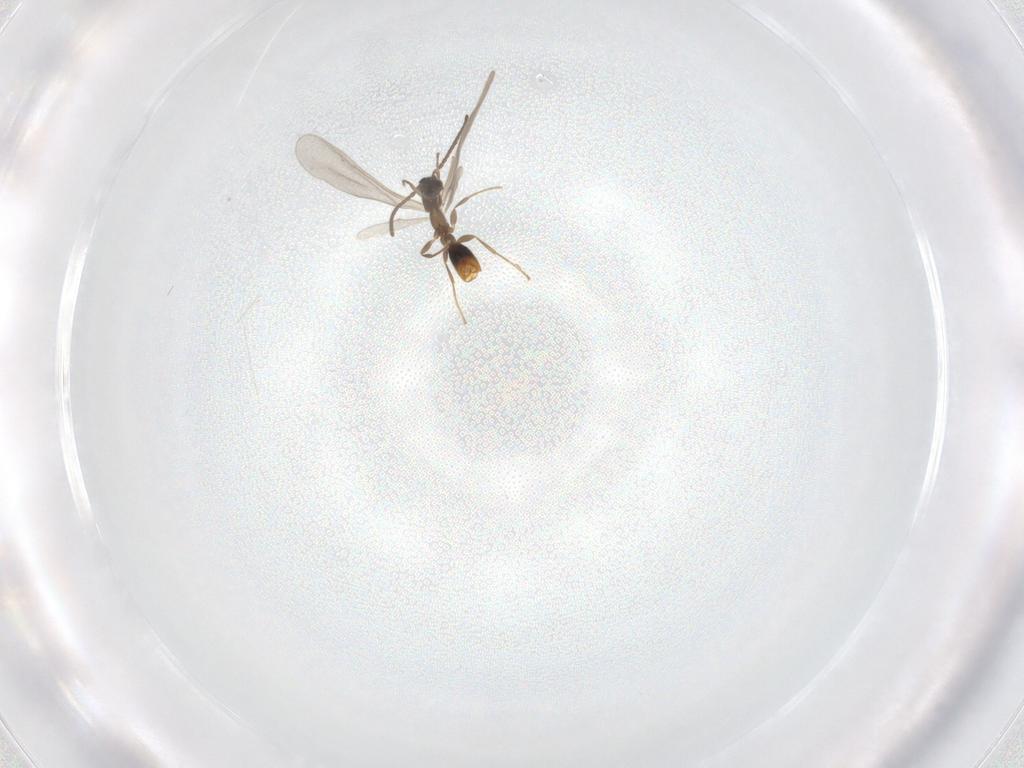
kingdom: Animalia
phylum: Arthropoda
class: Insecta
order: Hymenoptera
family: Formicidae
